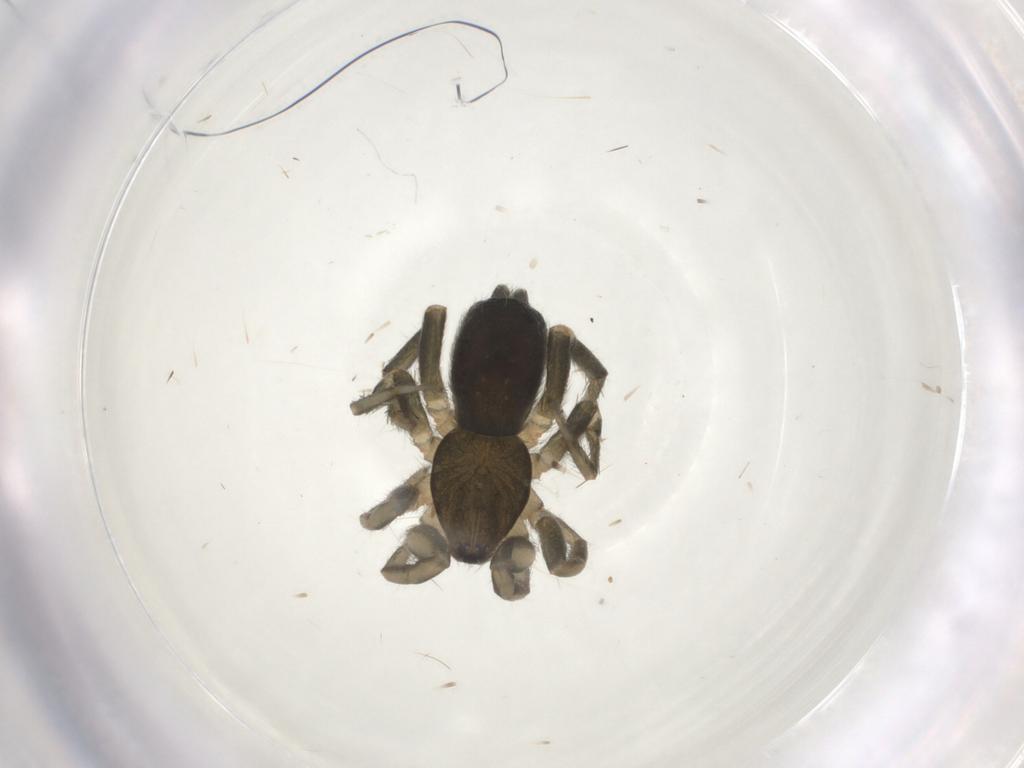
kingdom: Animalia
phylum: Arthropoda
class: Arachnida
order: Araneae
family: Gnaphosidae
